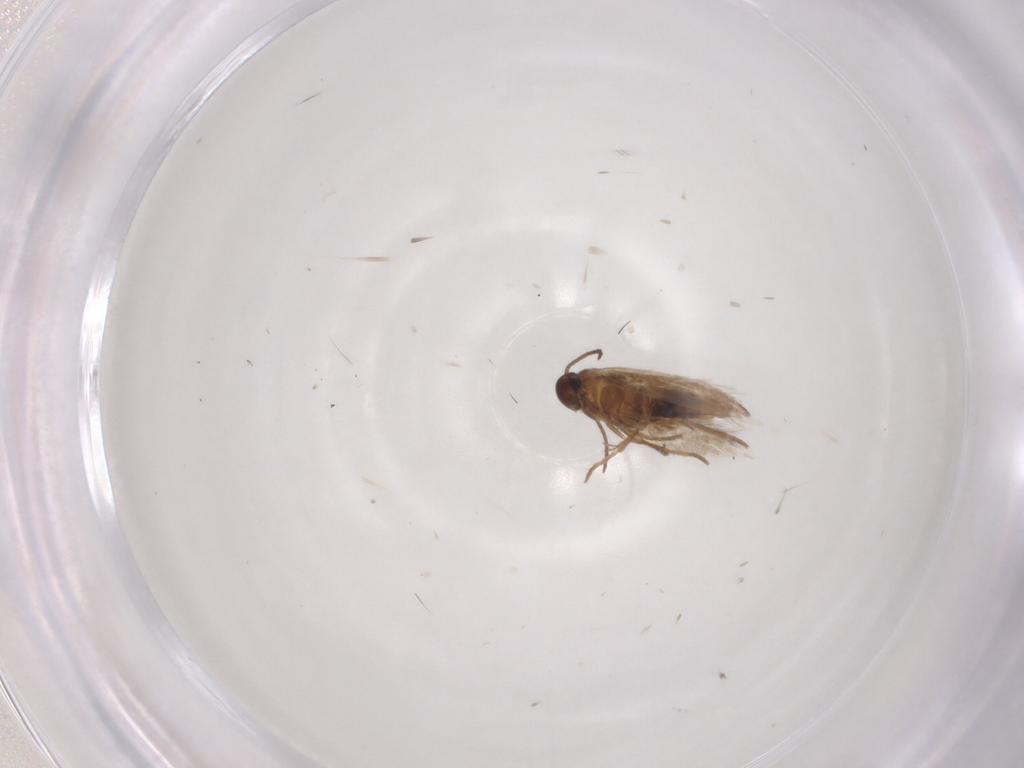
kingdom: Animalia
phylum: Arthropoda
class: Insecta
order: Lepidoptera
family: Heliozelidae
